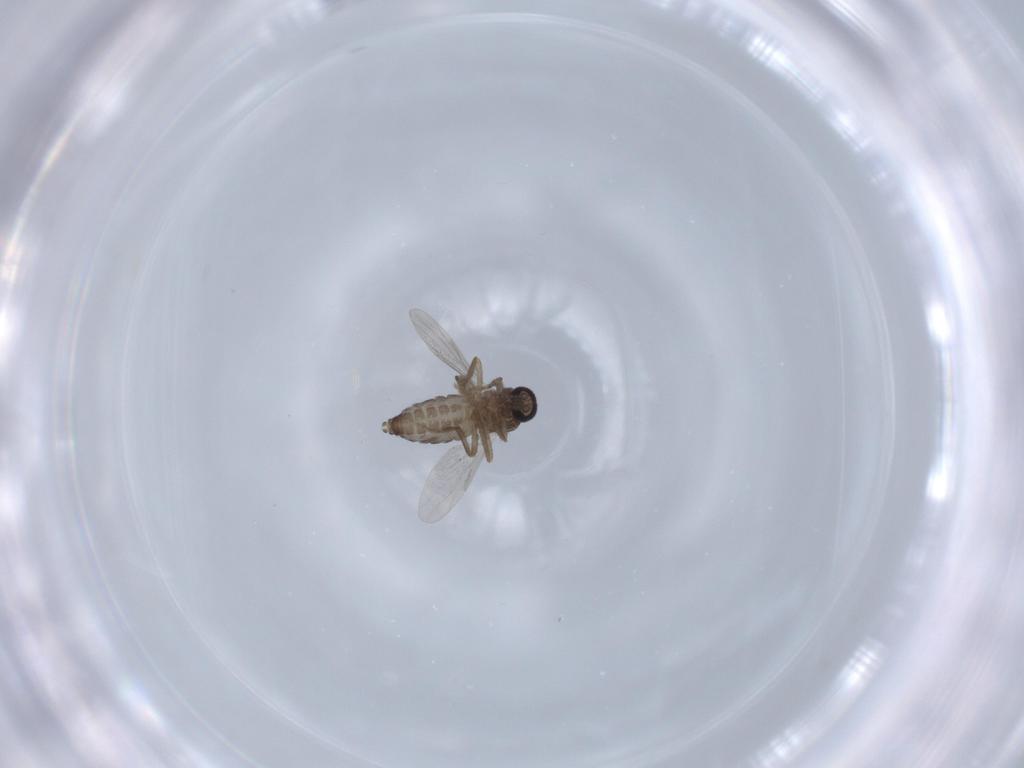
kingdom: Animalia
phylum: Arthropoda
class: Insecta
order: Diptera
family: Ceratopogonidae
